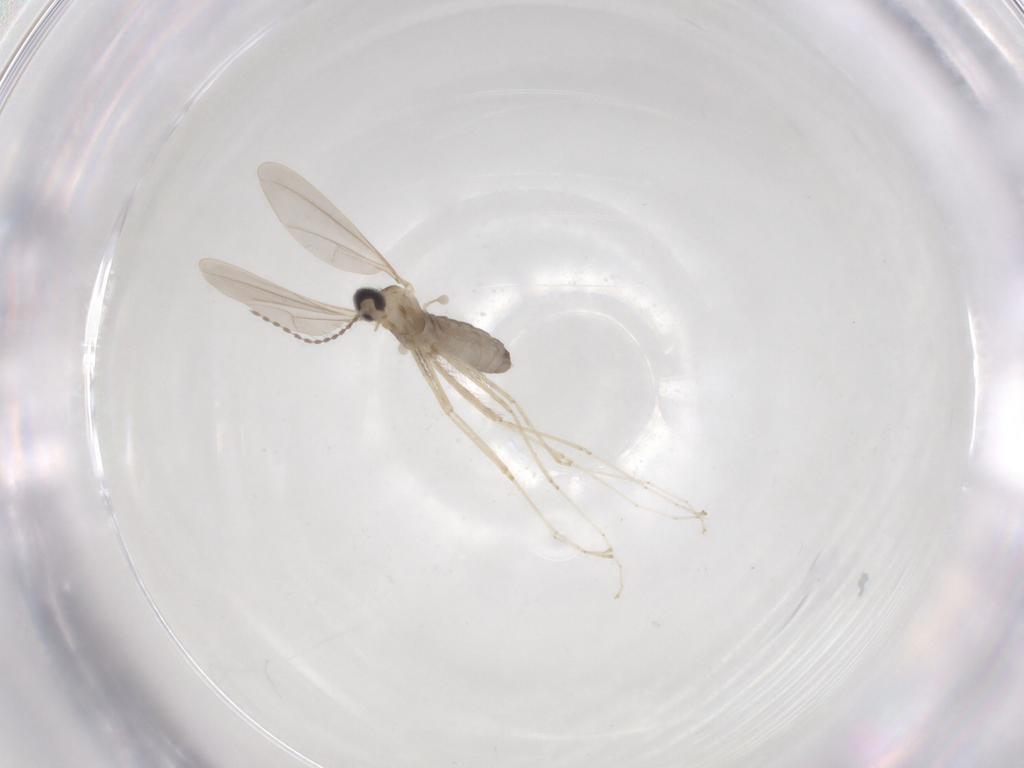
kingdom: Animalia
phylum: Arthropoda
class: Insecta
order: Diptera
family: Cecidomyiidae
